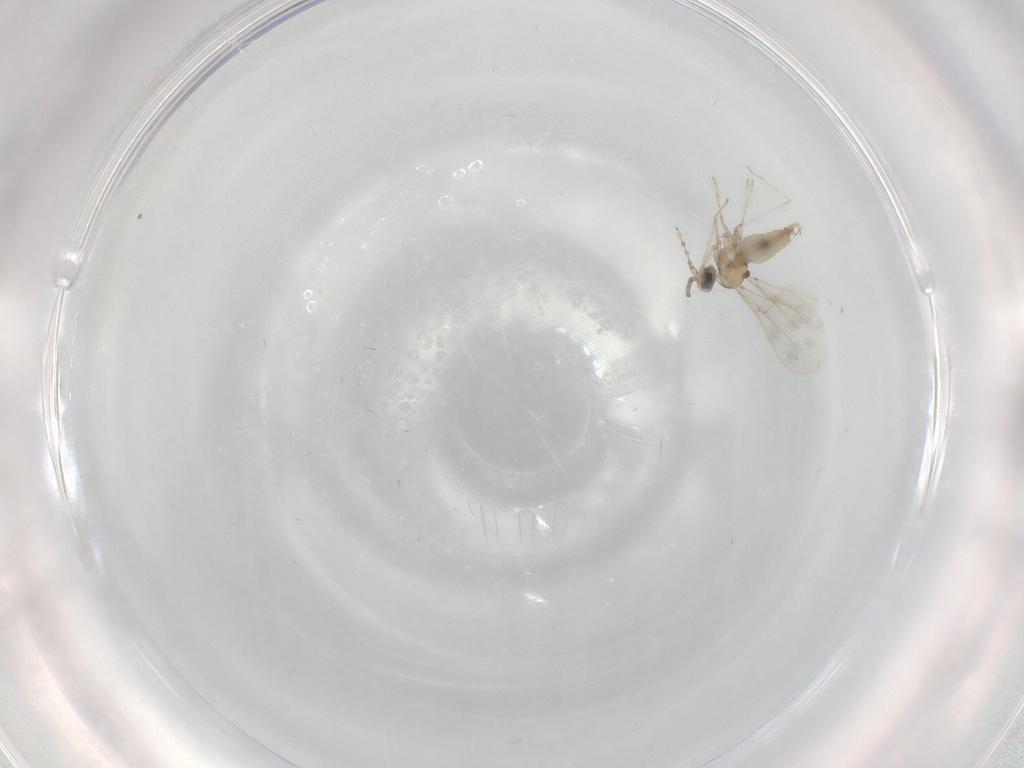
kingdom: Animalia
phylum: Arthropoda
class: Insecta
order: Diptera
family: Cecidomyiidae
